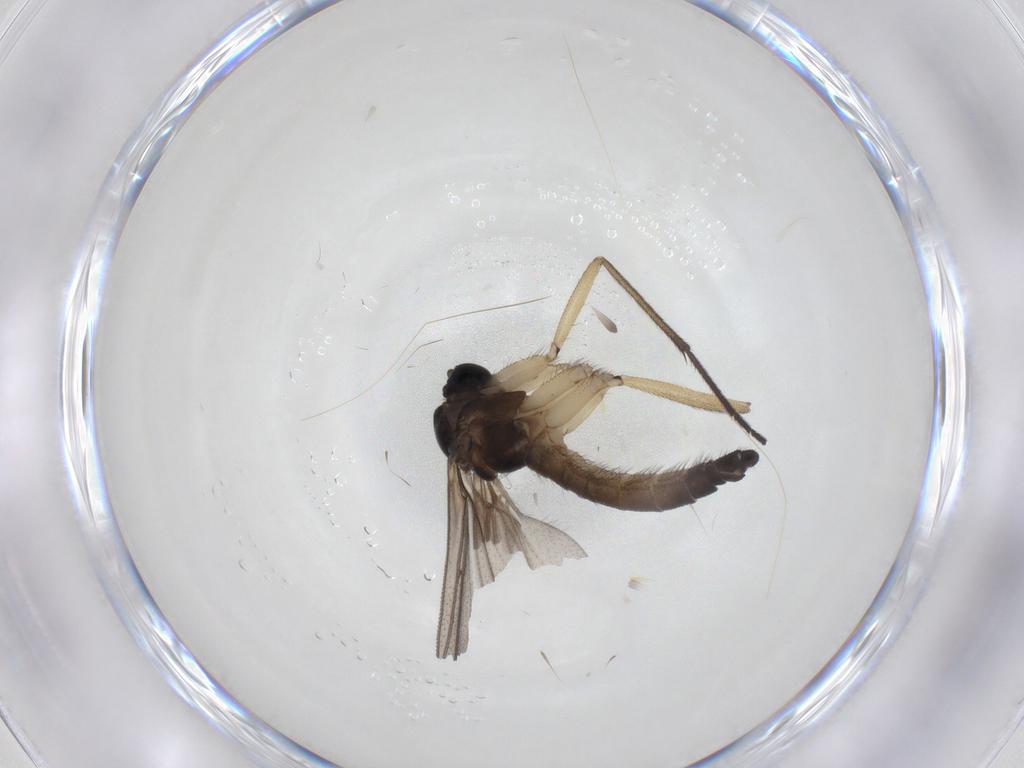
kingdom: Animalia
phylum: Arthropoda
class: Insecta
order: Diptera
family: Sciaridae
